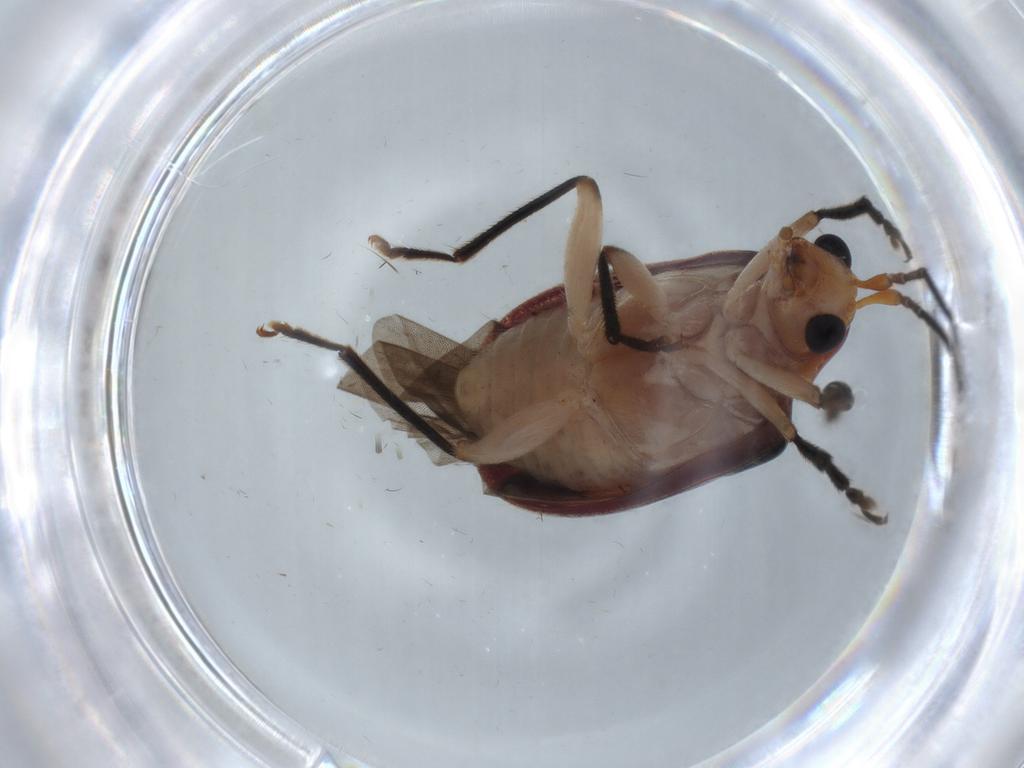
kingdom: Animalia
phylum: Arthropoda
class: Insecta
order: Coleoptera
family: Chrysomelidae
